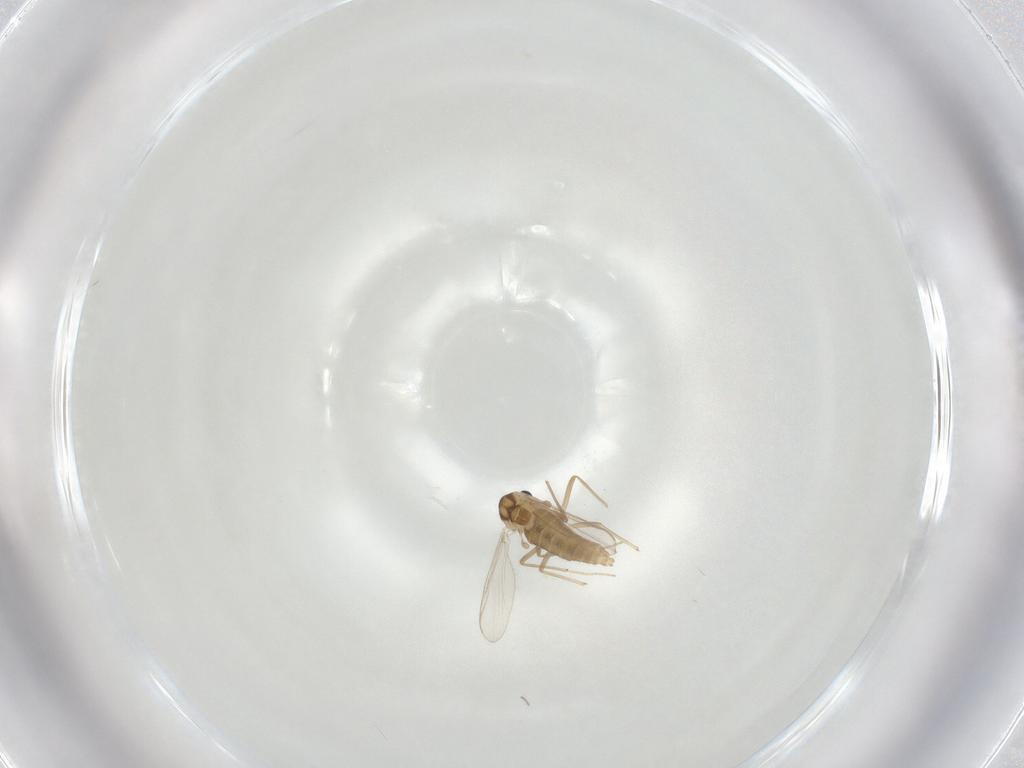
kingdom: Animalia
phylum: Arthropoda
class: Insecta
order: Diptera
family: Chironomidae
